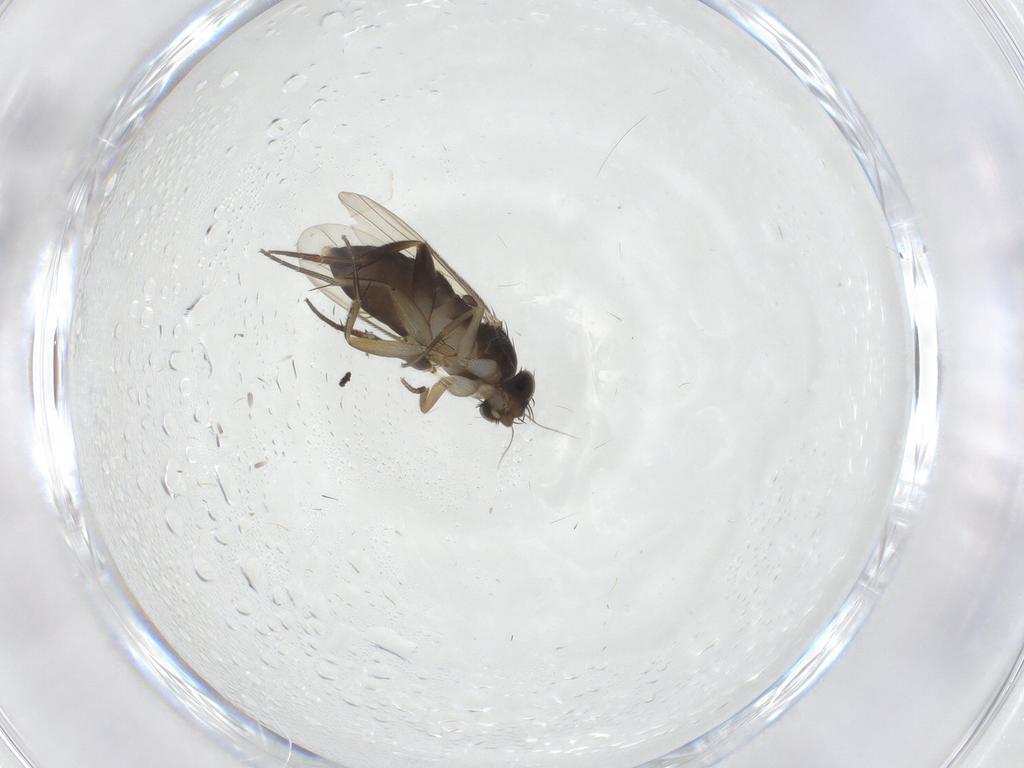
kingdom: Animalia
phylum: Arthropoda
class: Insecta
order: Diptera
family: Phoridae
